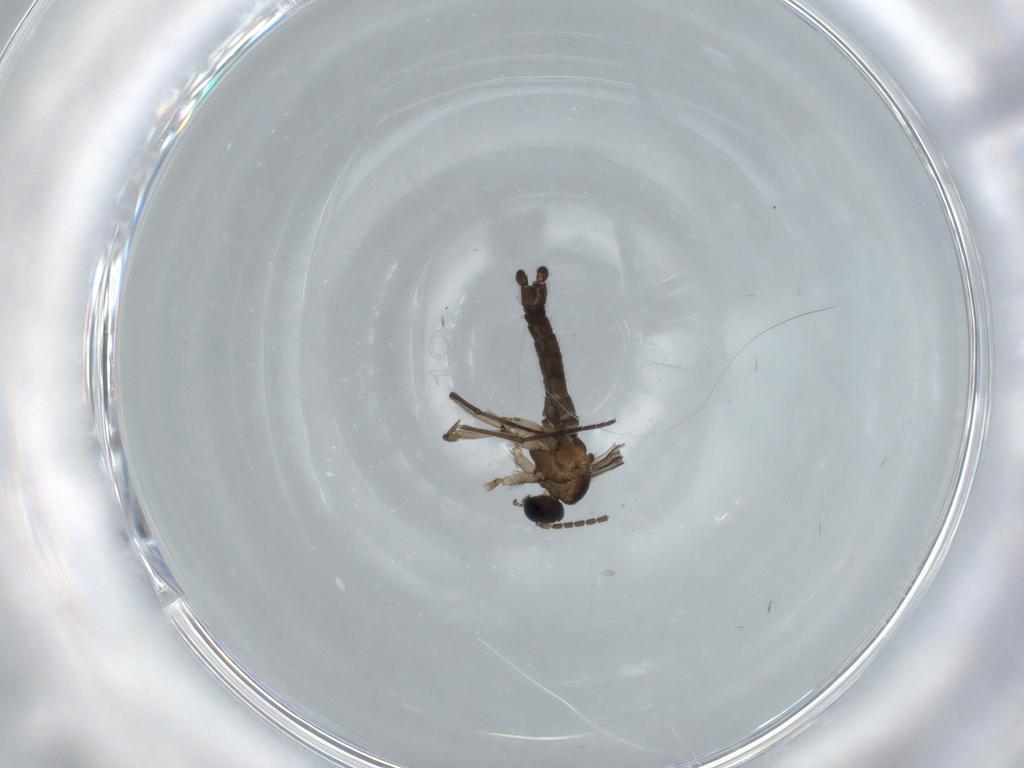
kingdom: Animalia
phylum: Arthropoda
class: Insecta
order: Diptera
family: Sciaridae
